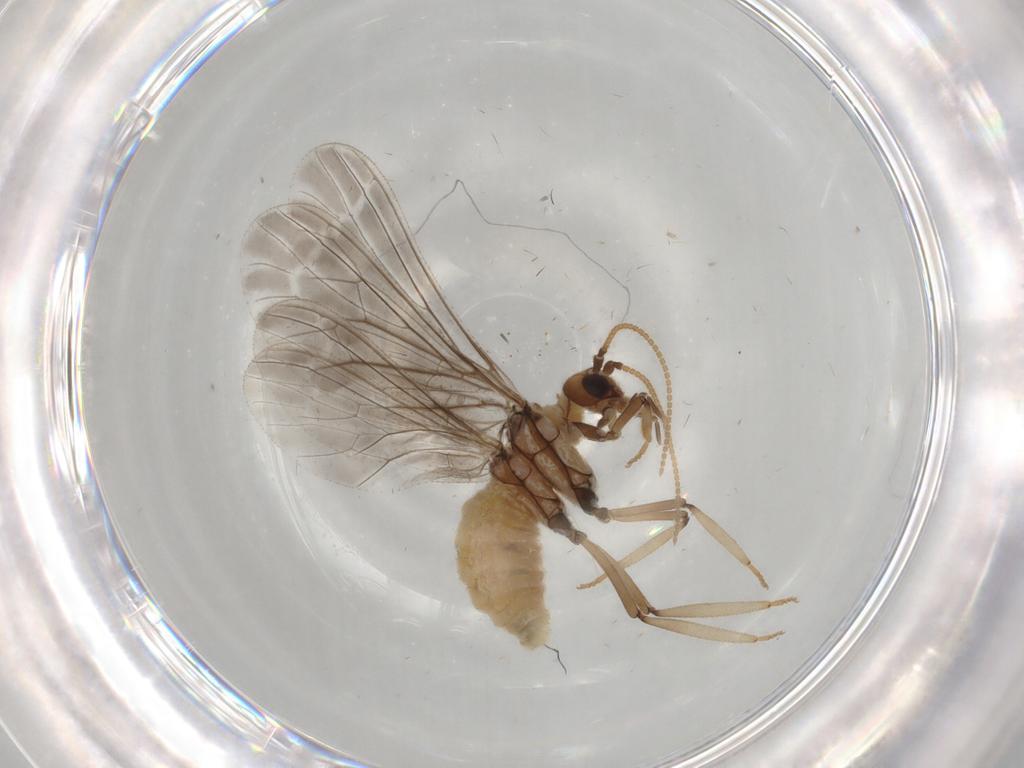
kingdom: Animalia
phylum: Arthropoda
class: Insecta
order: Neuroptera
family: Coniopterygidae
